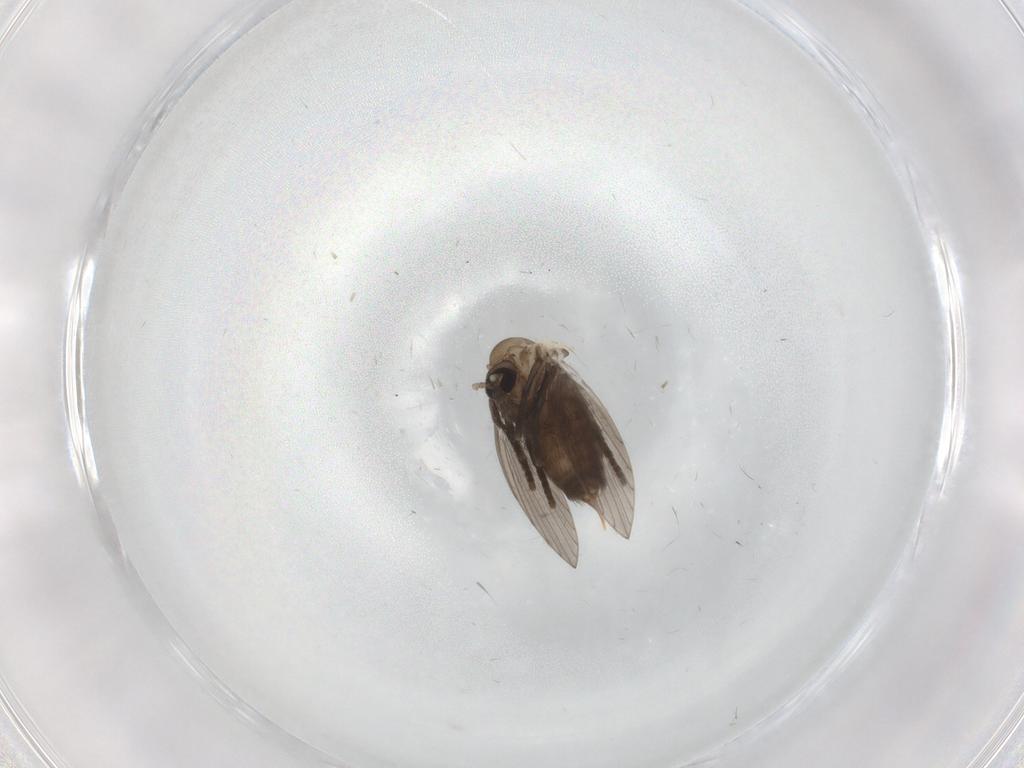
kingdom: Animalia
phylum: Arthropoda
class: Insecta
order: Diptera
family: Psychodidae
